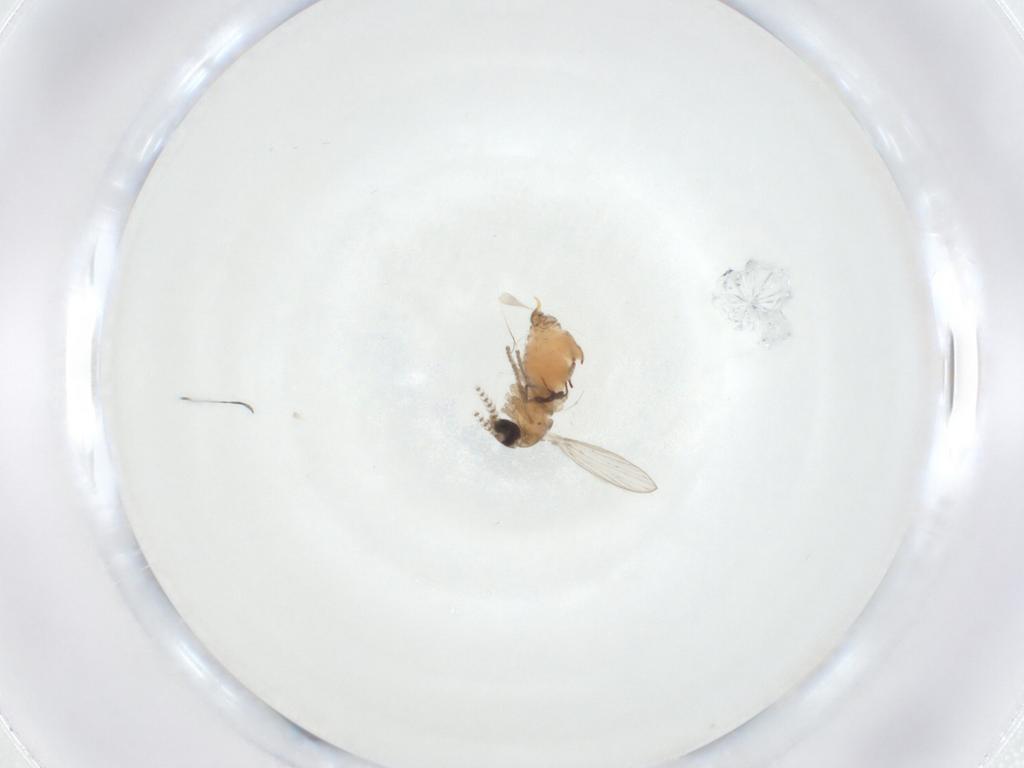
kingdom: Animalia
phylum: Arthropoda
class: Insecta
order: Diptera
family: Psychodidae
